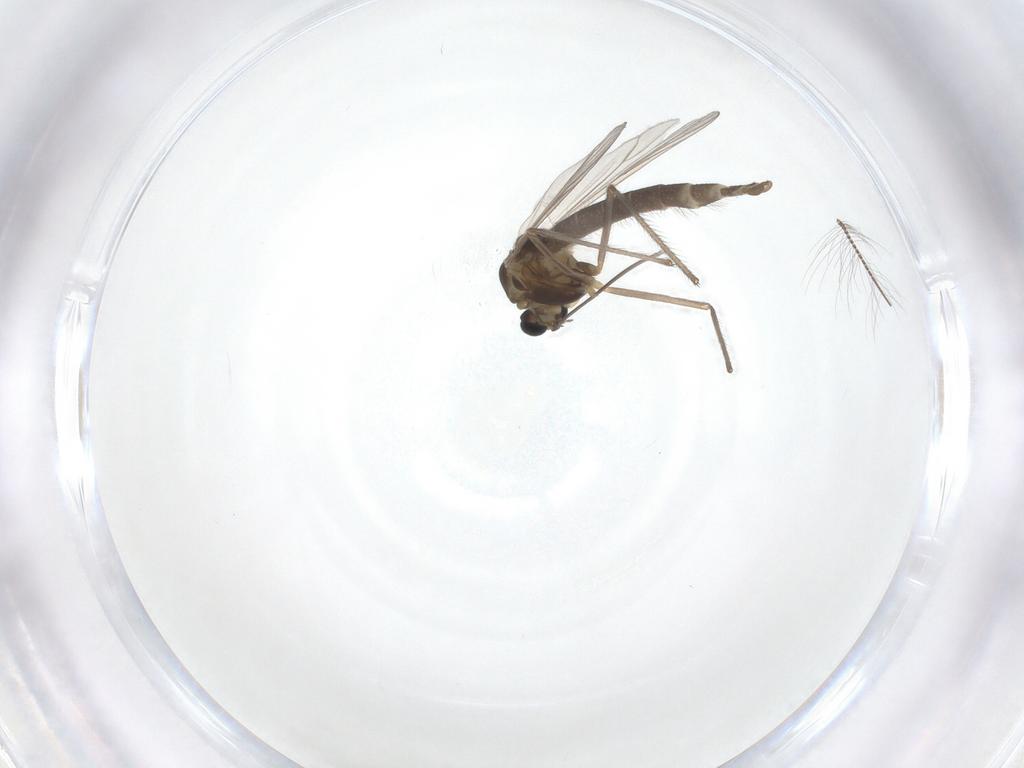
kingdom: Animalia
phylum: Arthropoda
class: Insecta
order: Diptera
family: Chironomidae
